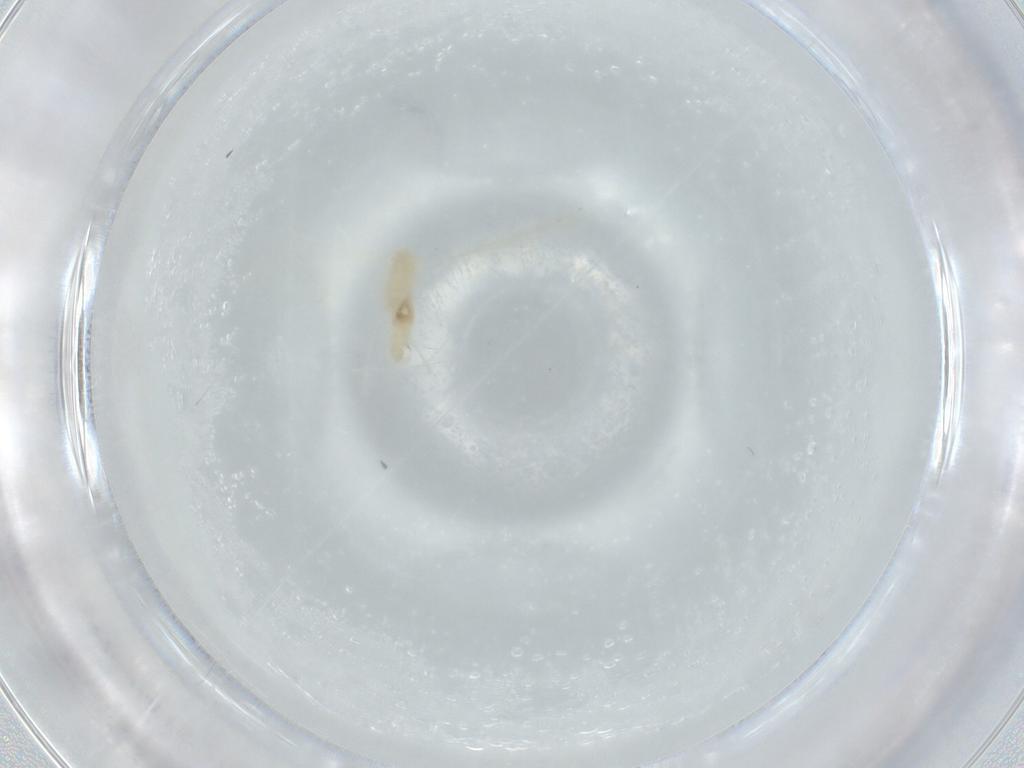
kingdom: Animalia
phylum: Arthropoda
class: Insecta
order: Diptera
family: Cecidomyiidae
